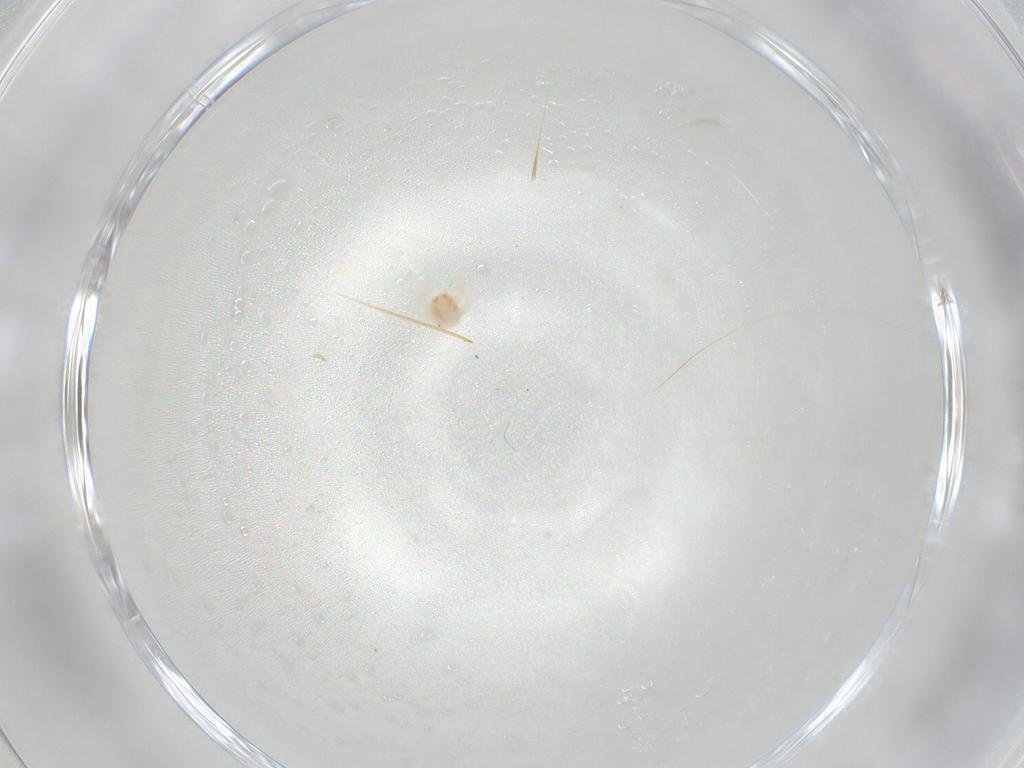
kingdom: Animalia
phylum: Arthropoda
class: Arachnida
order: Trombidiformes
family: Anystidae
